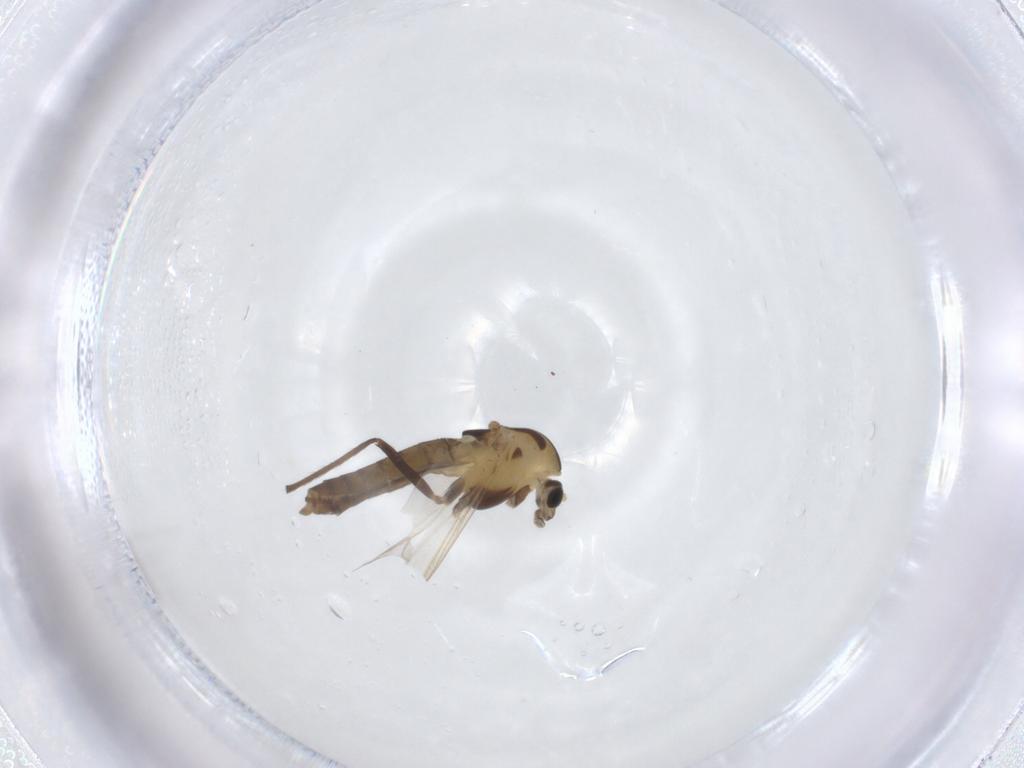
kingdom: Animalia
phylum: Arthropoda
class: Insecta
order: Diptera
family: Chironomidae
